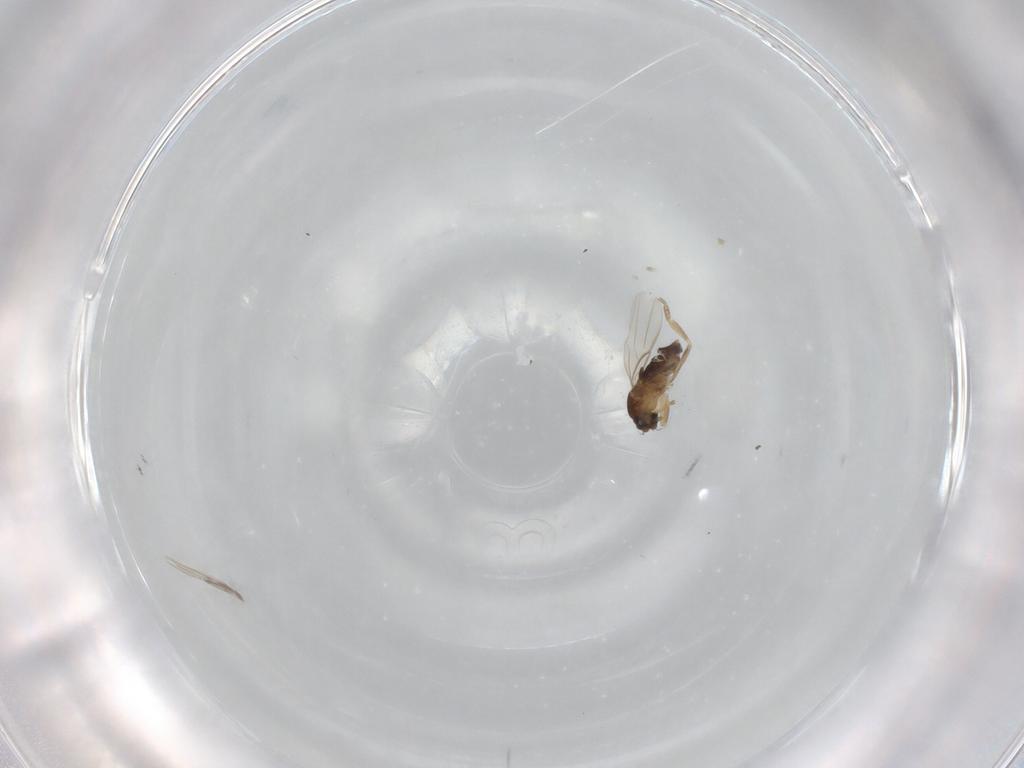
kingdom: Animalia
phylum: Arthropoda
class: Insecta
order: Diptera
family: Phoridae
